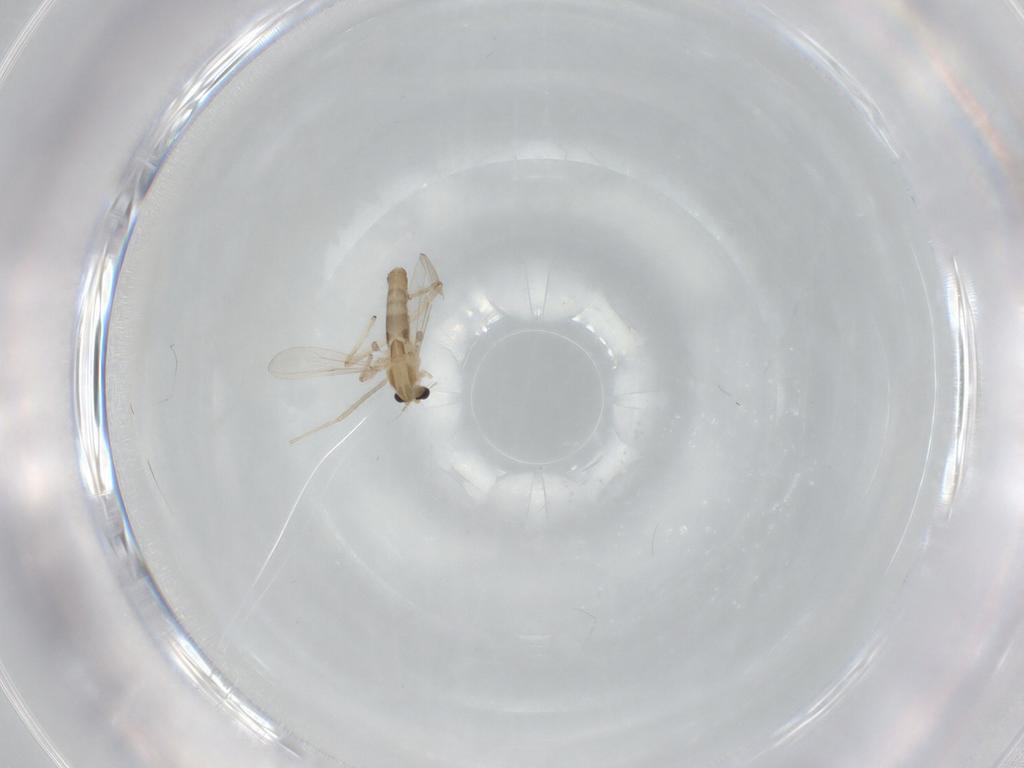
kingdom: Animalia
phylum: Arthropoda
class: Insecta
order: Diptera
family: Chironomidae
